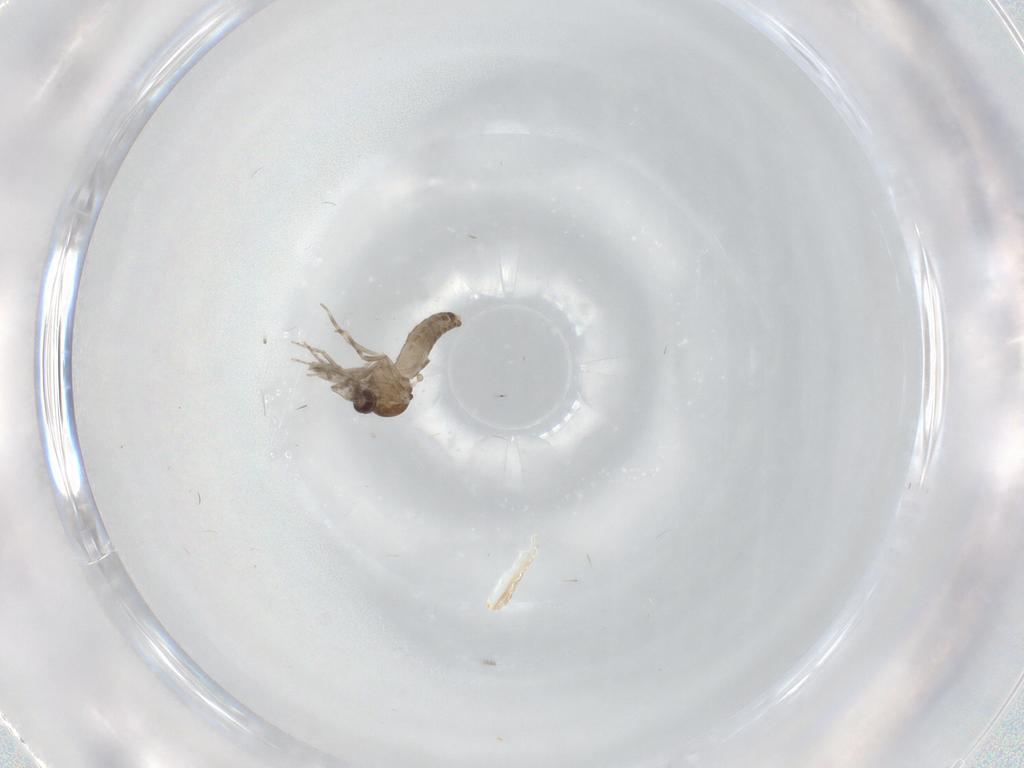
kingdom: Animalia
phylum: Arthropoda
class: Insecta
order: Diptera
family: Ceratopogonidae
